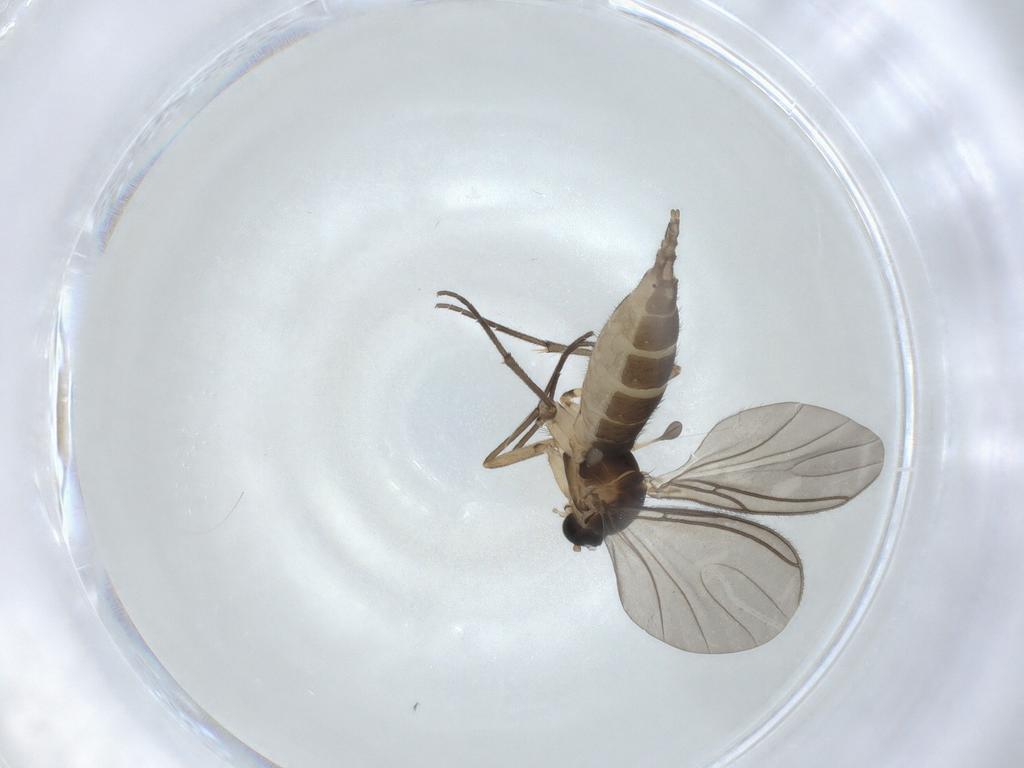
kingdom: Animalia
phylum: Arthropoda
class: Insecta
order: Diptera
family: Sciaridae
